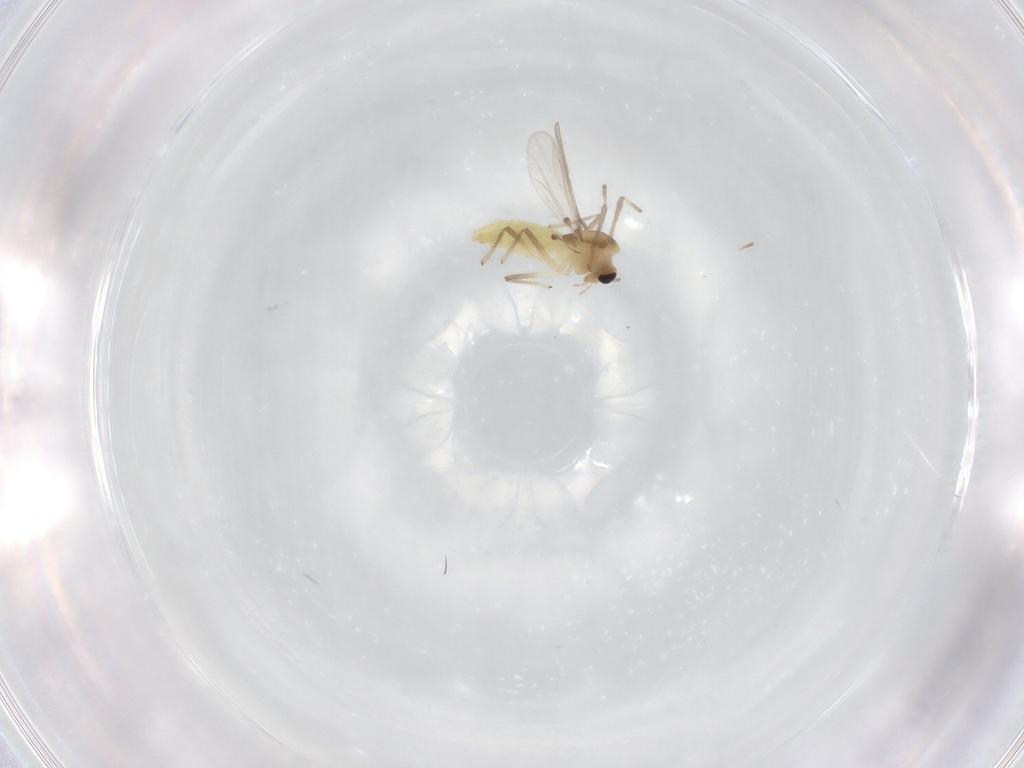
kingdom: Animalia
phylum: Arthropoda
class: Insecta
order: Diptera
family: Chironomidae
